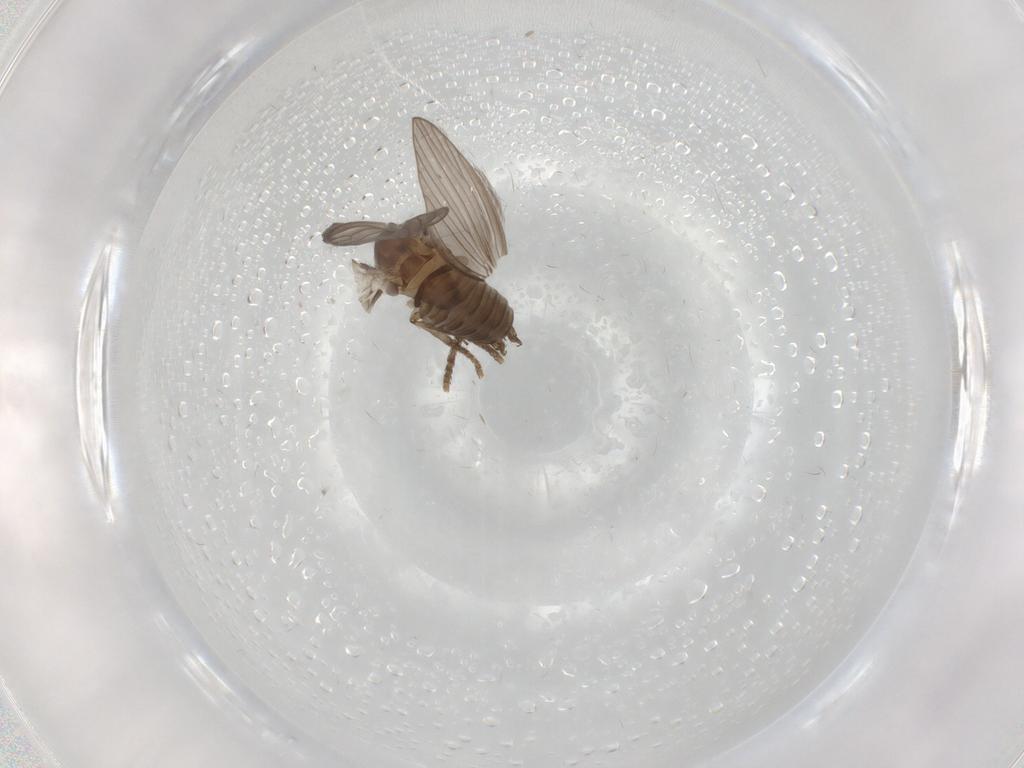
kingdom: Animalia
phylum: Arthropoda
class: Insecta
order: Diptera
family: Psychodidae
